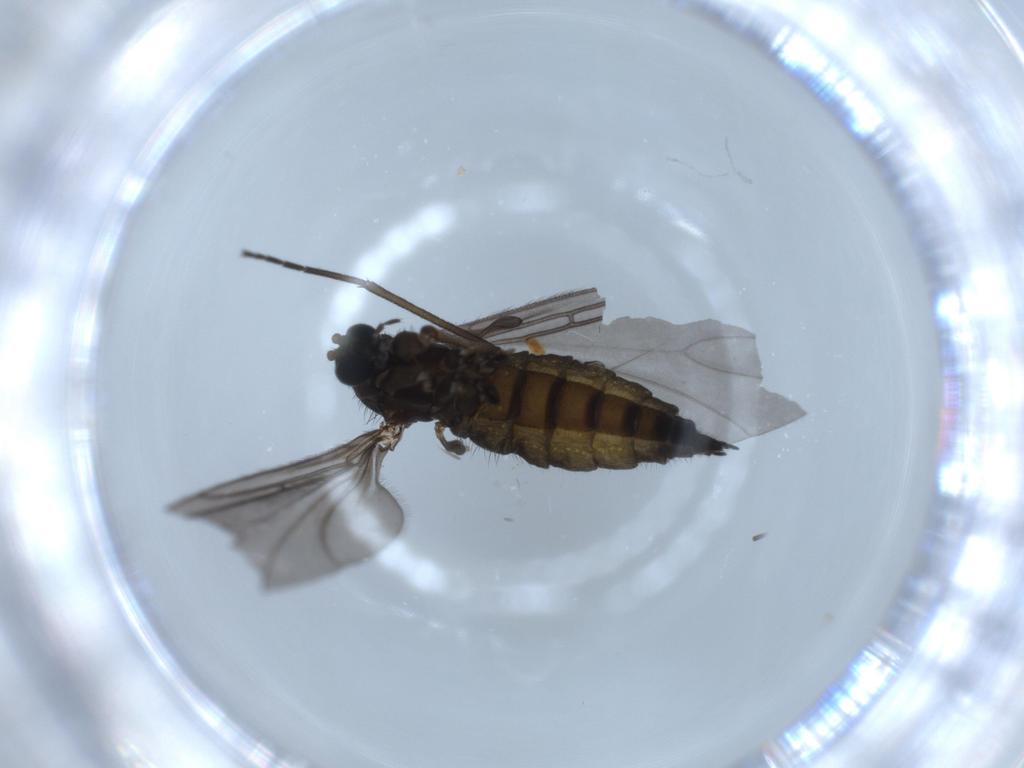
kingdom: Animalia
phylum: Arthropoda
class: Insecta
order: Diptera
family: Sciaridae
